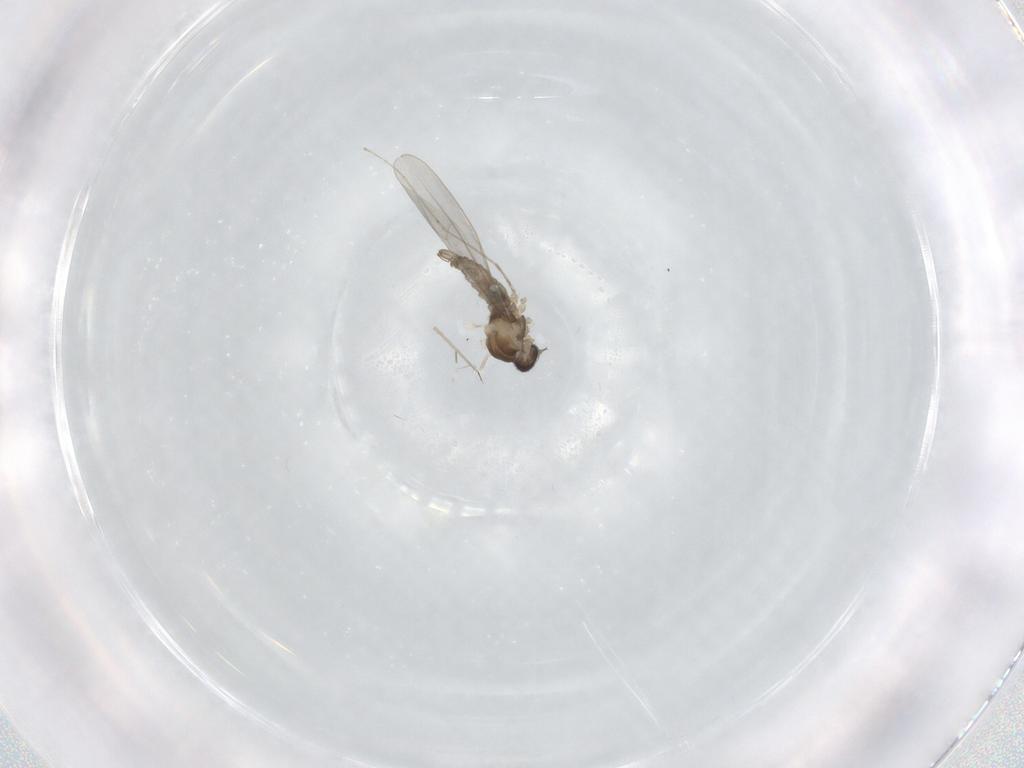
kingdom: Animalia
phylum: Arthropoda
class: Insecta
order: Diptera
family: Cecidomyiidae
